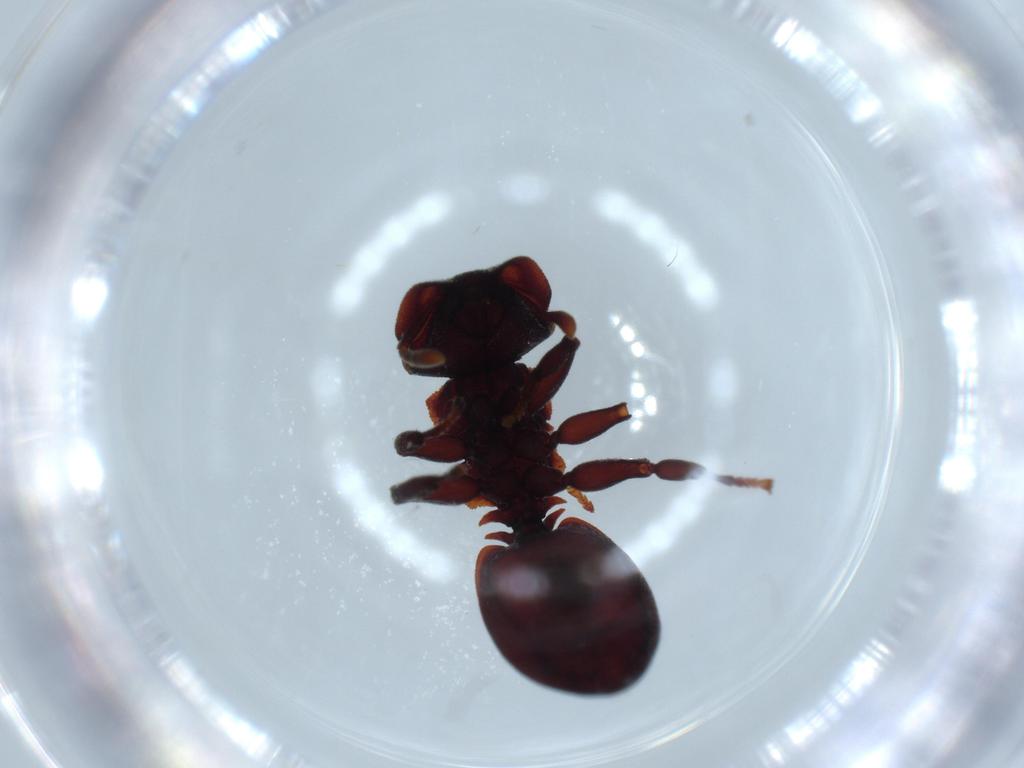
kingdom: Animalia
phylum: Arthropoda
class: Insecta
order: Hymenoptera
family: Formicidae
